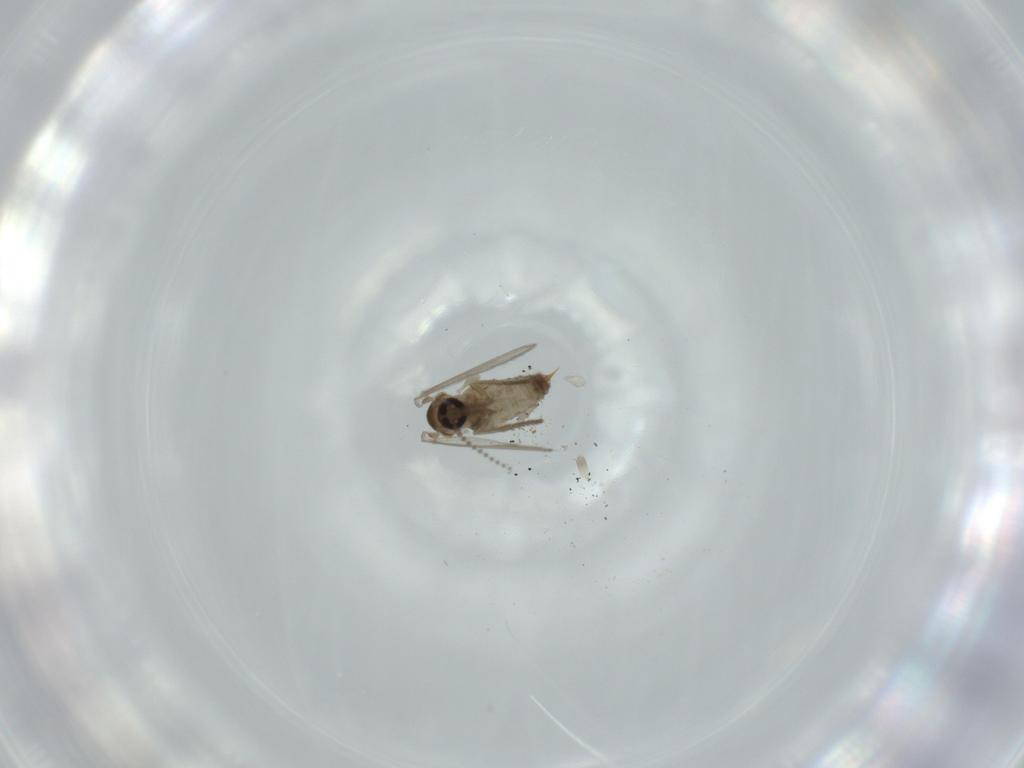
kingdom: Animalia
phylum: Arthropoda
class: Insecta
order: Diptera
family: Psychodidae
